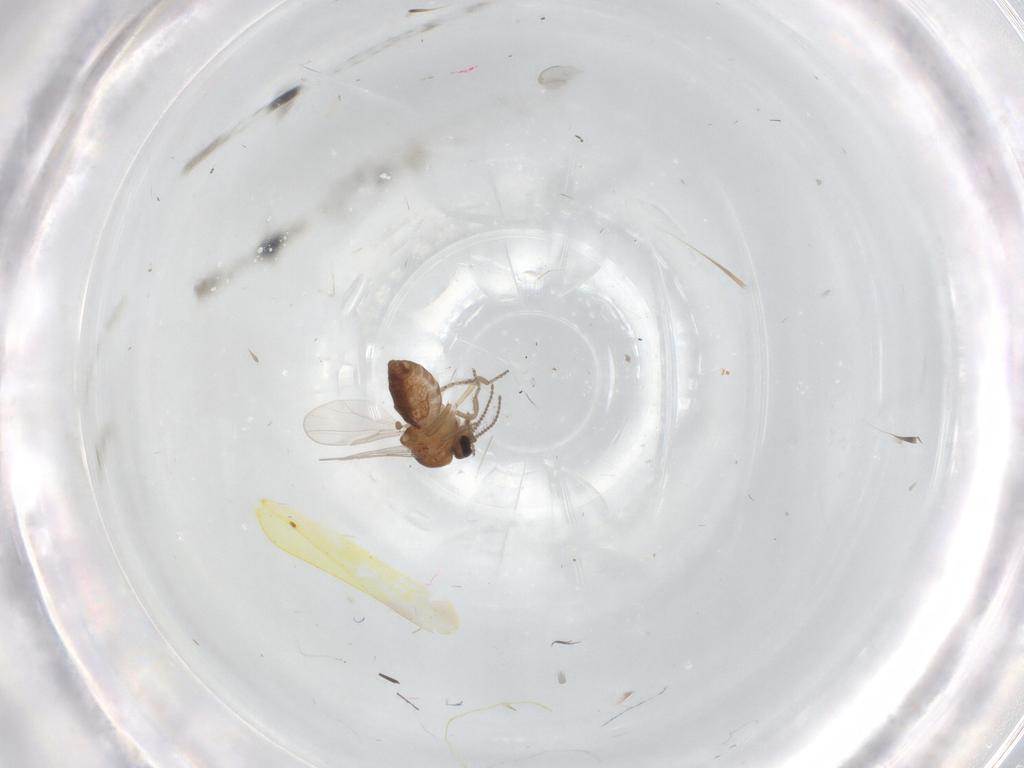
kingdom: Animalia
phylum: Arthropoda
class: Insecta
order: Diptera
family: Ceratopogonidae
